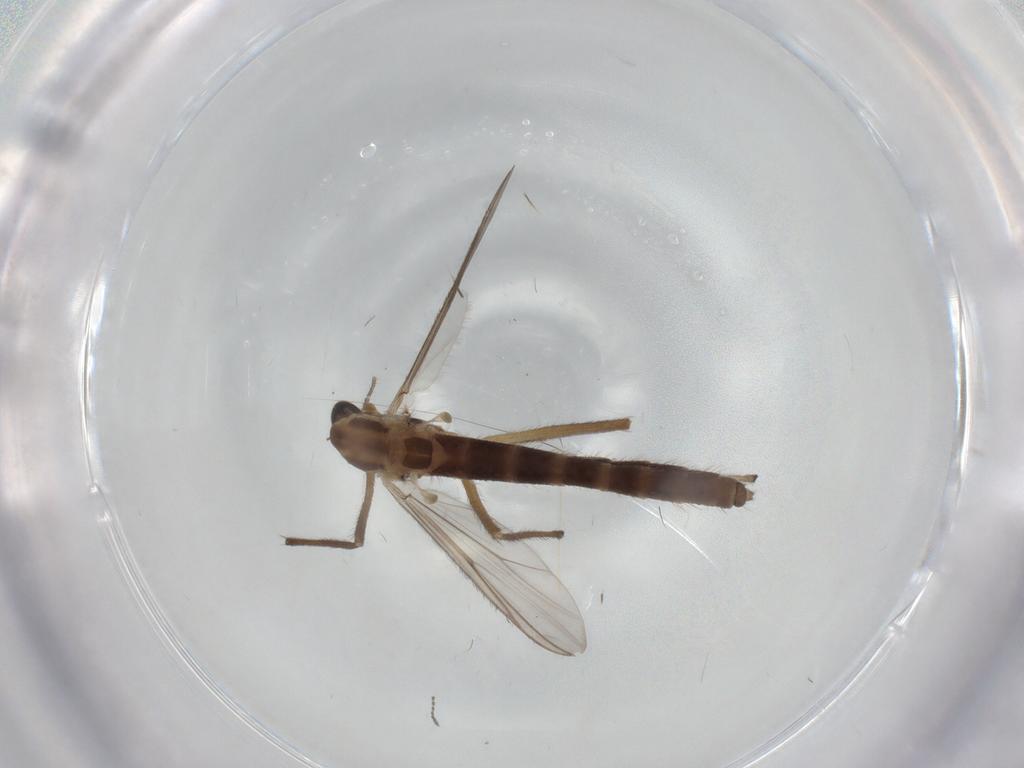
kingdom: Animalia
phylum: Arthropoda
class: Insecta
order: Diptera
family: Chironomidae
